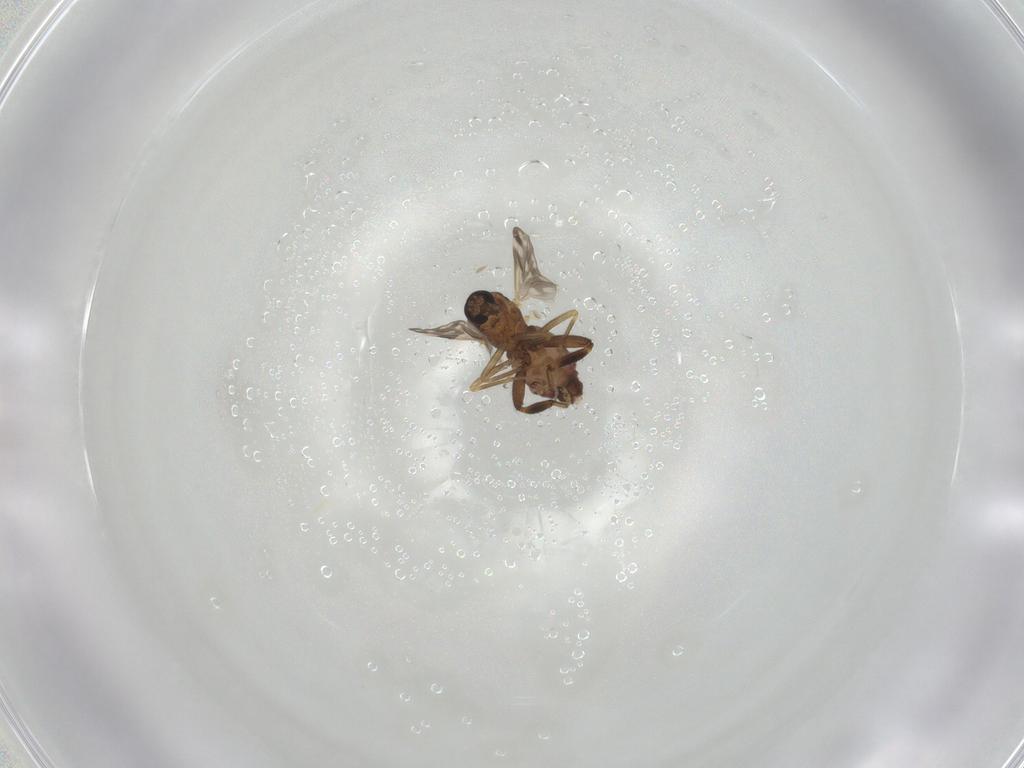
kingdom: Animalia
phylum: Arthropoda
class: Insecta
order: Diptera
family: Ceratopogonidae
